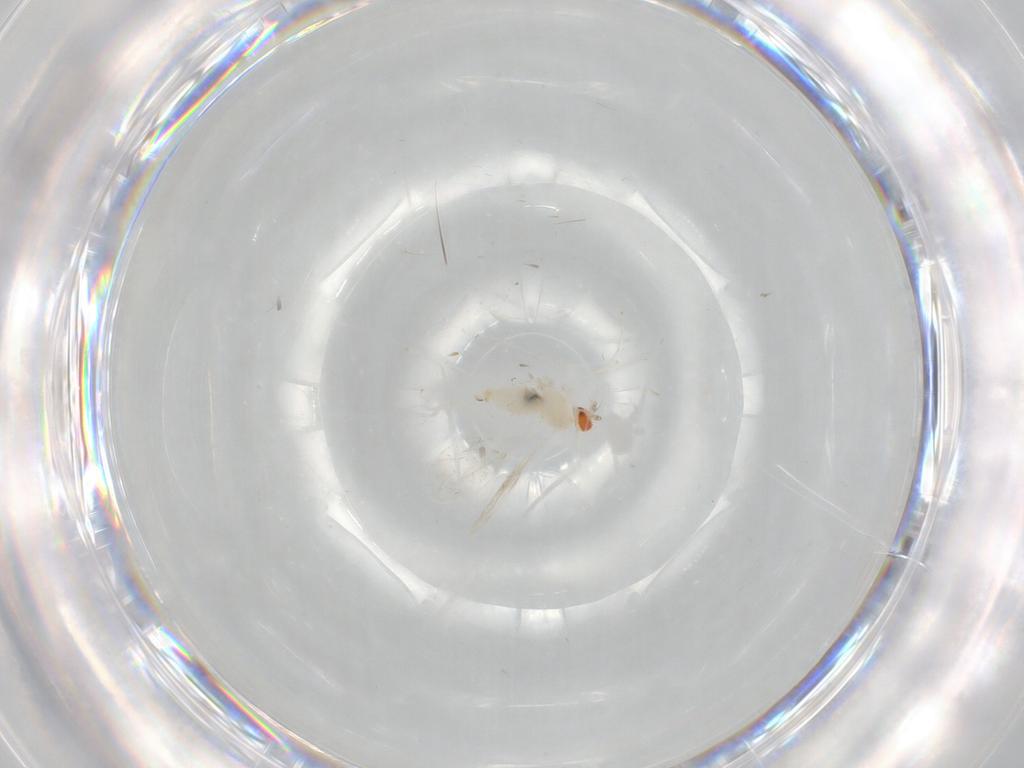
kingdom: Animalia
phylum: Arthropoda
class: Insecta
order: Diptera
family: Cecidomyiidae
